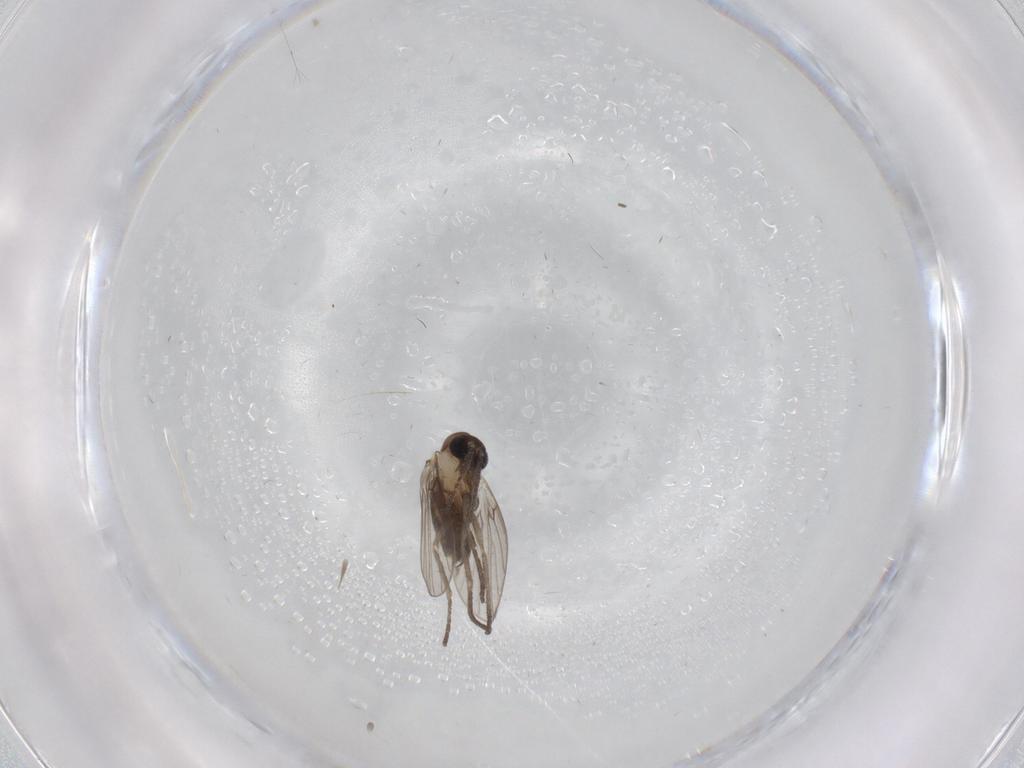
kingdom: Animalia
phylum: Arthropoda
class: Insecta
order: Diptera
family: Psychodidae
